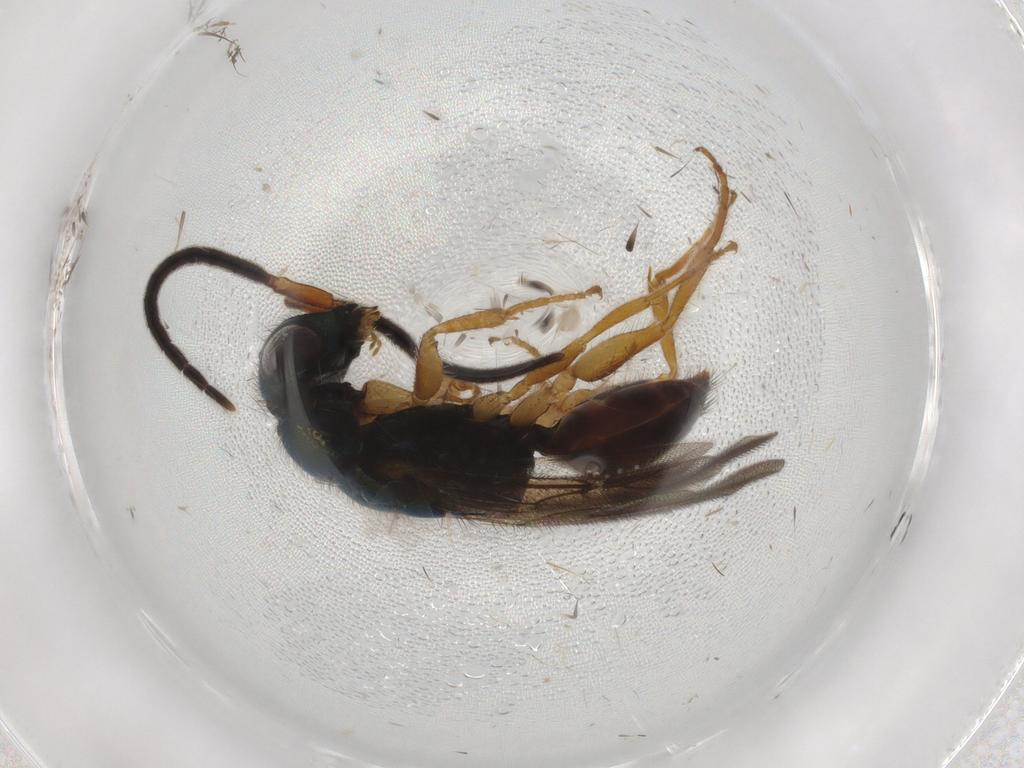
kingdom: Animalia
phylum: Arthropoda
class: Insecta
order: Hymenoptera
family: Chrysididae
